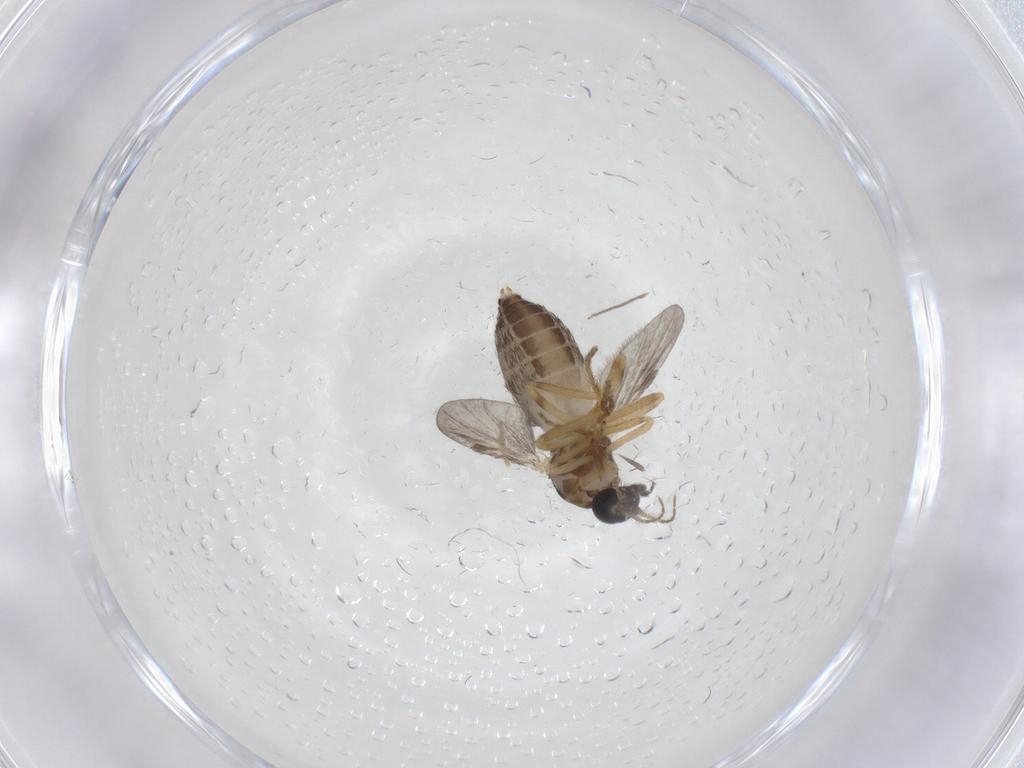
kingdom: Animalia
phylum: Arthropoda
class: Insecta
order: Diptera
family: Ceratopogonidae
